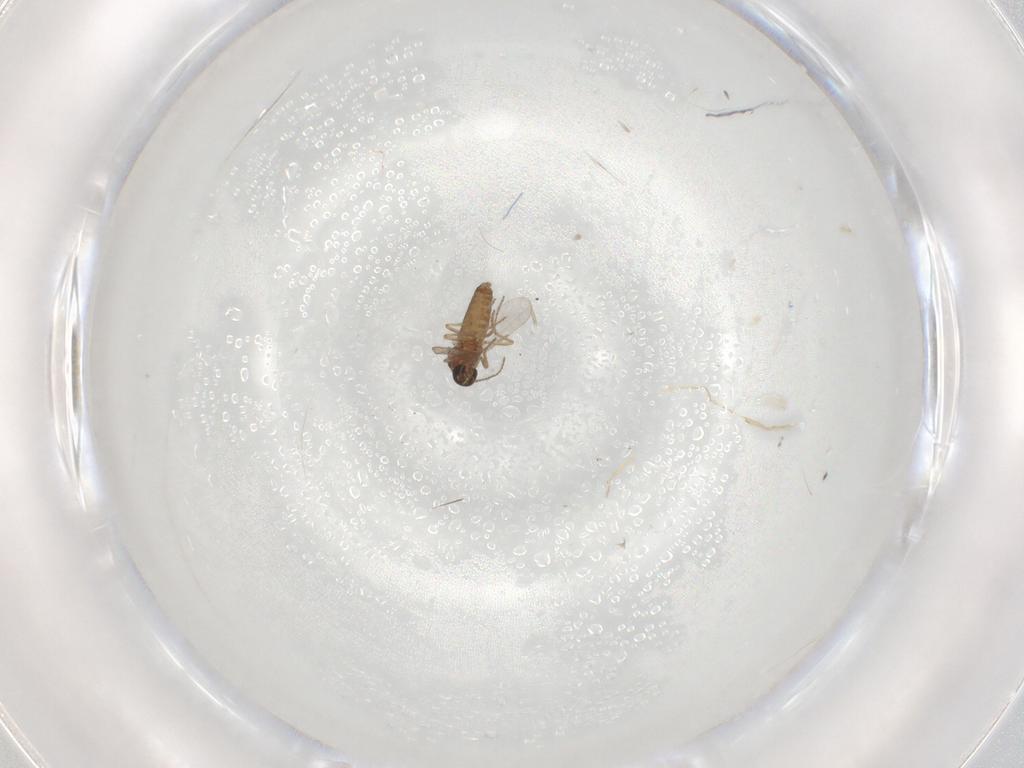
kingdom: Animalia
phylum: Arthropoda
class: Insecta
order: Diptera
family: Ceratopogonidae
